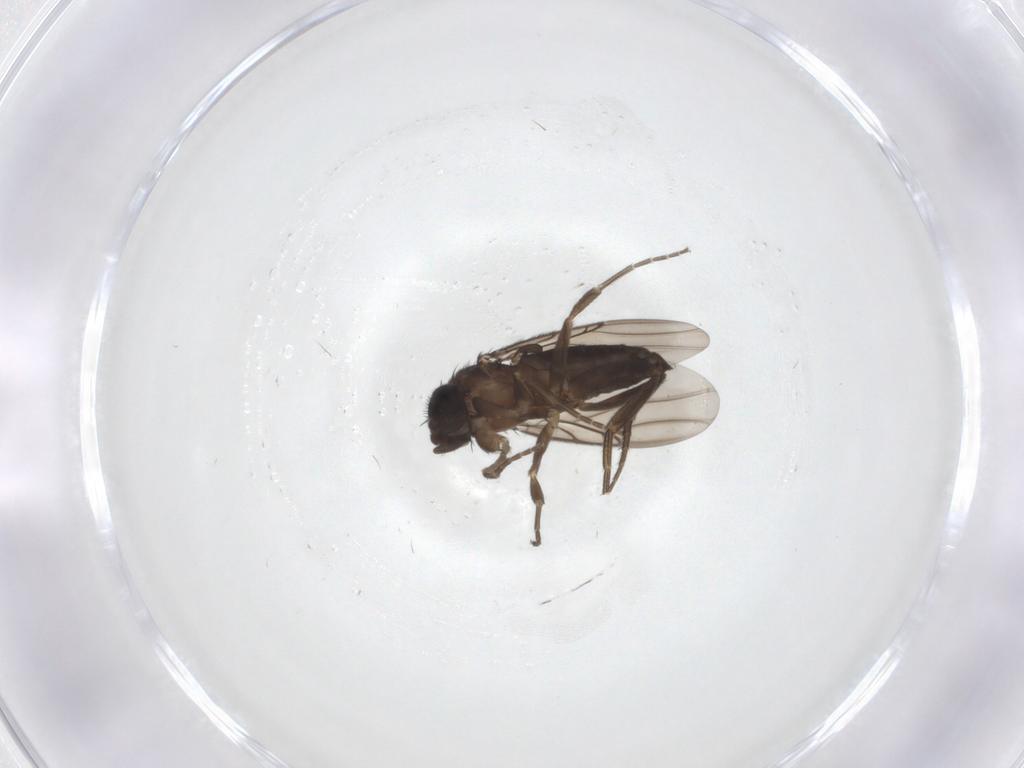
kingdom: Animalia
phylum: Arthropoda
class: Insecta
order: Diptera
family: Phoridae
